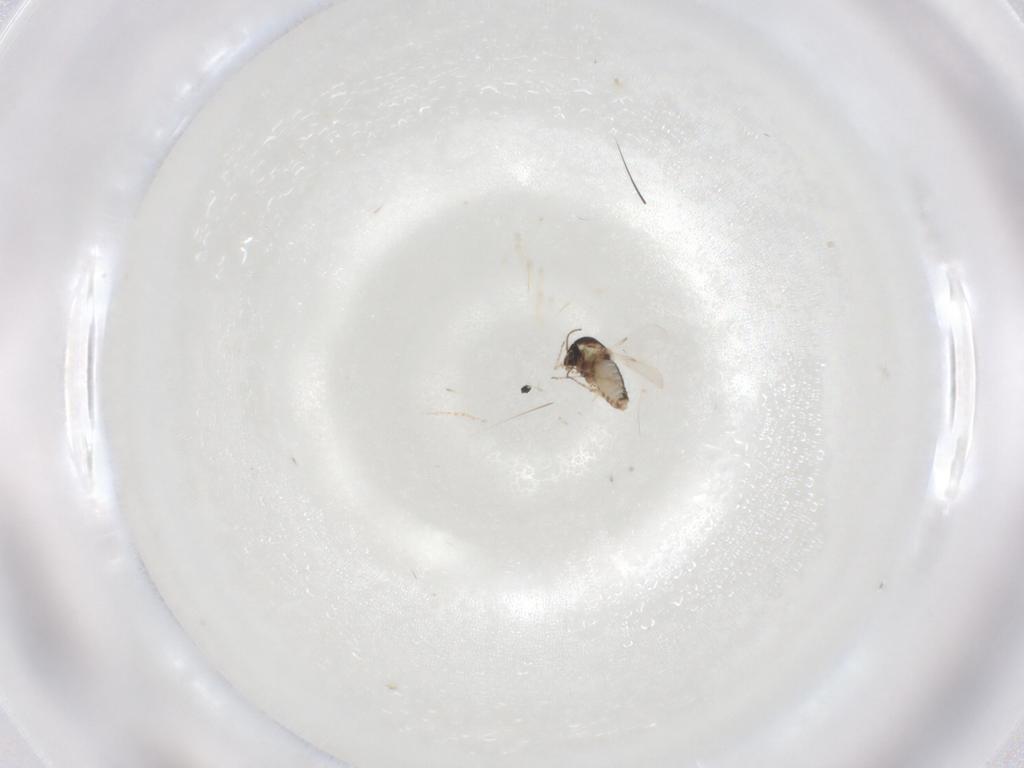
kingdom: Animalia
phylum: Arthropoda
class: Insecta
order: Diptera
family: Ceratopogonidae
